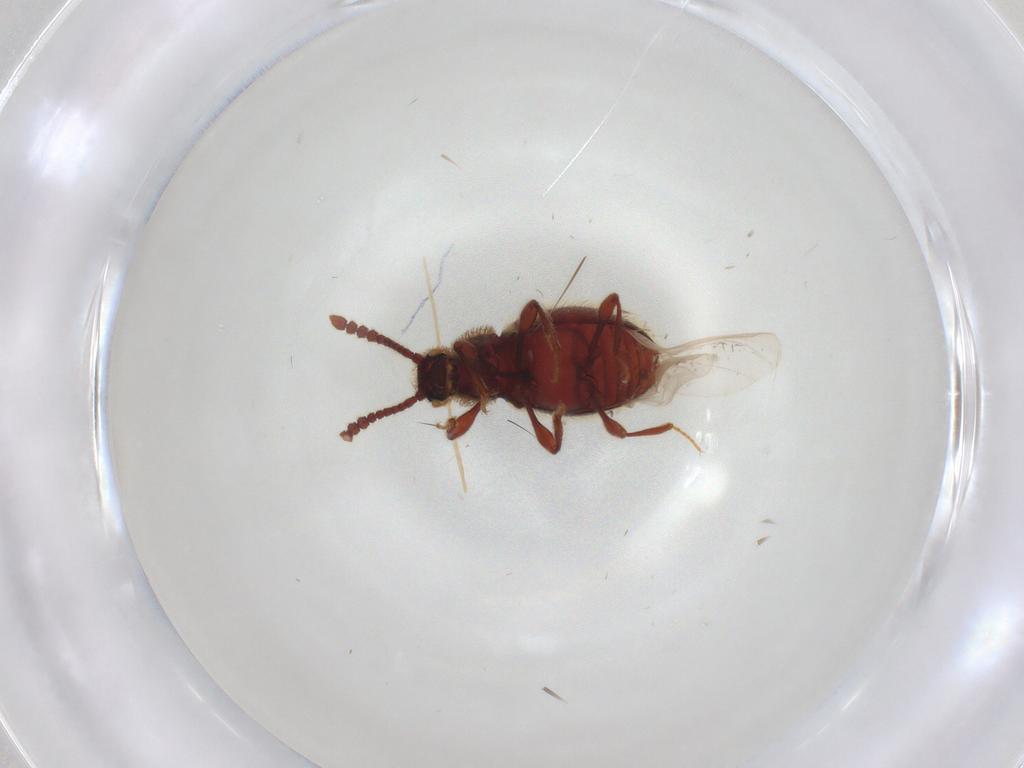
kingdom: Animalia
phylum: Arthropoda
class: Insecta
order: Coleoptera
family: Staphylinidae
